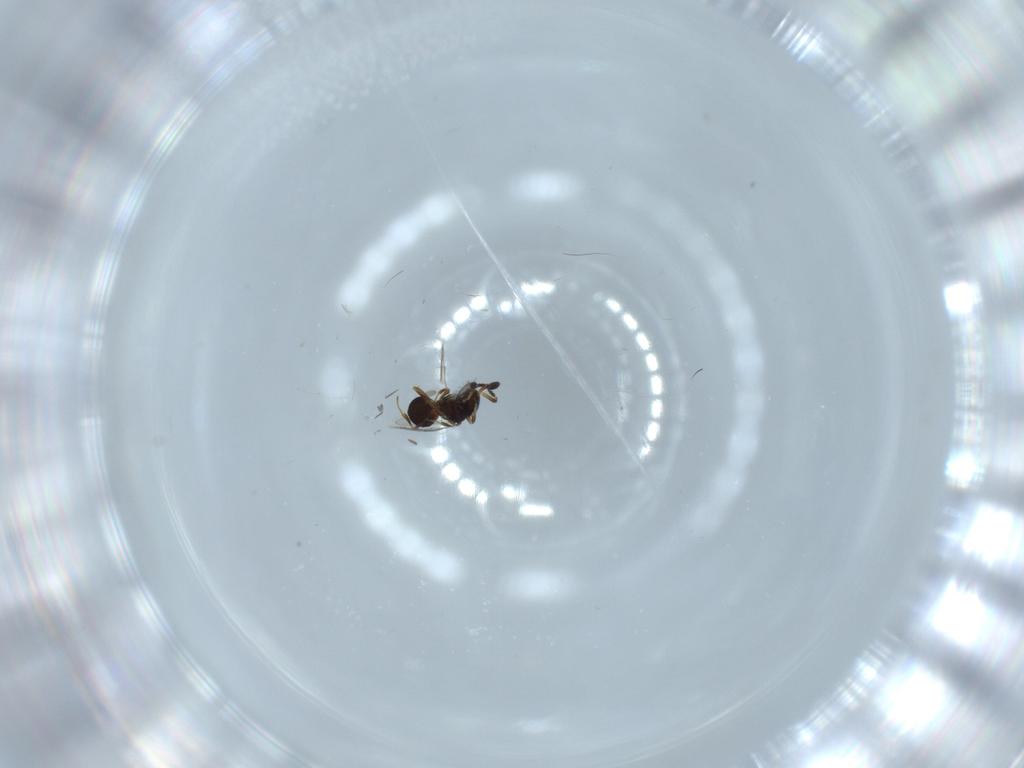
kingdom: Animalia
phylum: Arthropoda
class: Insecta
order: Hymenoptera
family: Scelionidae
